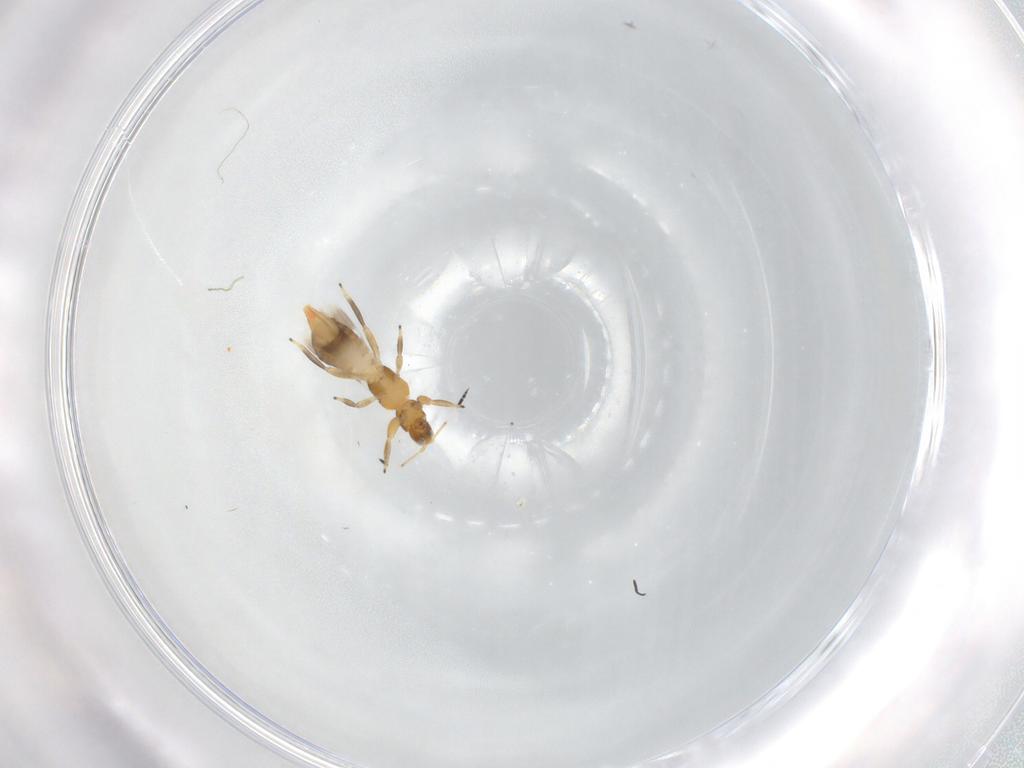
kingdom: Animalia
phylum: Arthropoda
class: Insecta
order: Thysanoptera
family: Aeolothripidae
